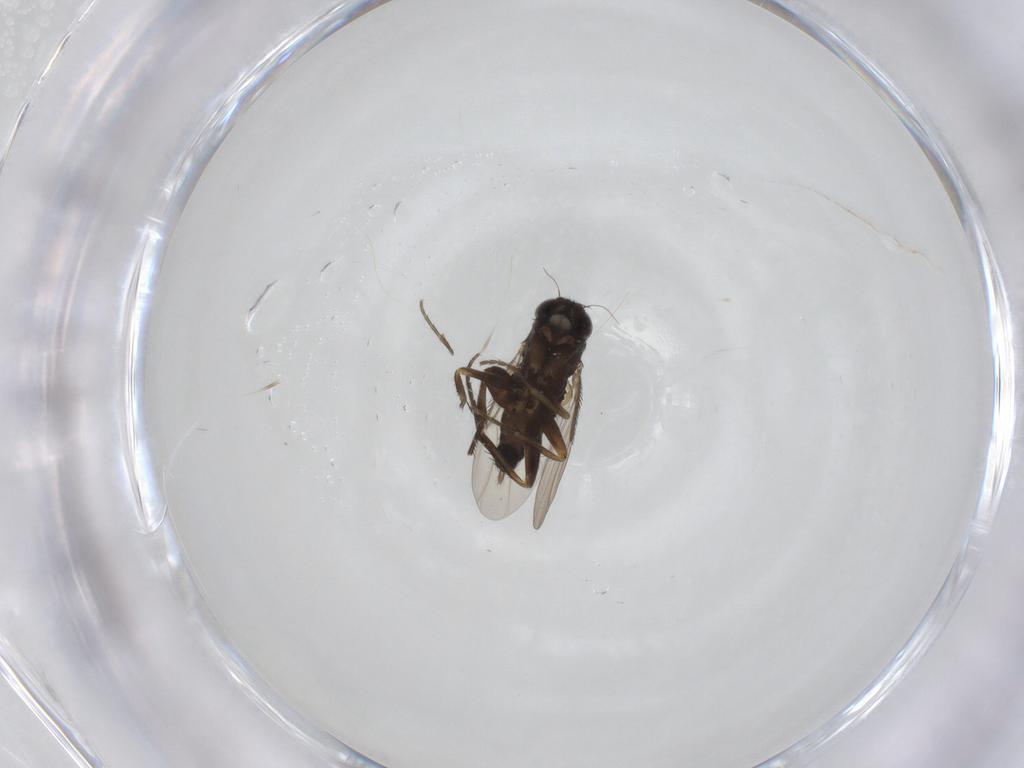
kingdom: Animalia
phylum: Arthropoda
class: Insecta
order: Diptera
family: Phoridae
